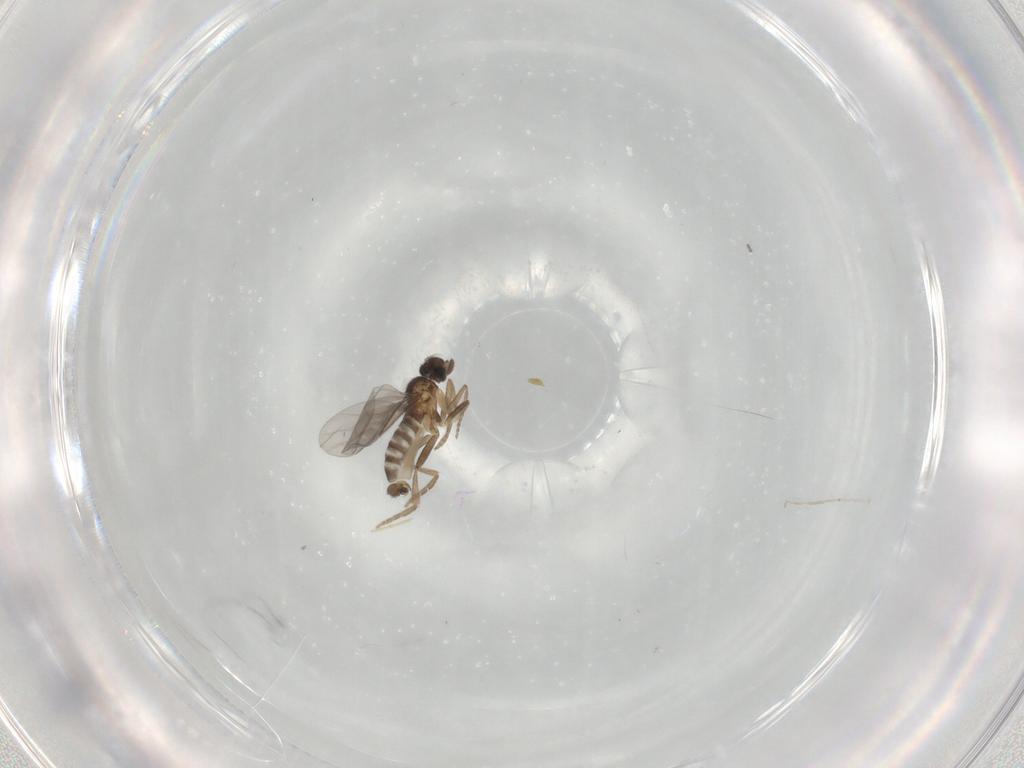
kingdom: Animalia
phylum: Arthropoda
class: Insecta
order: Diptera
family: Cecidomyiidae
